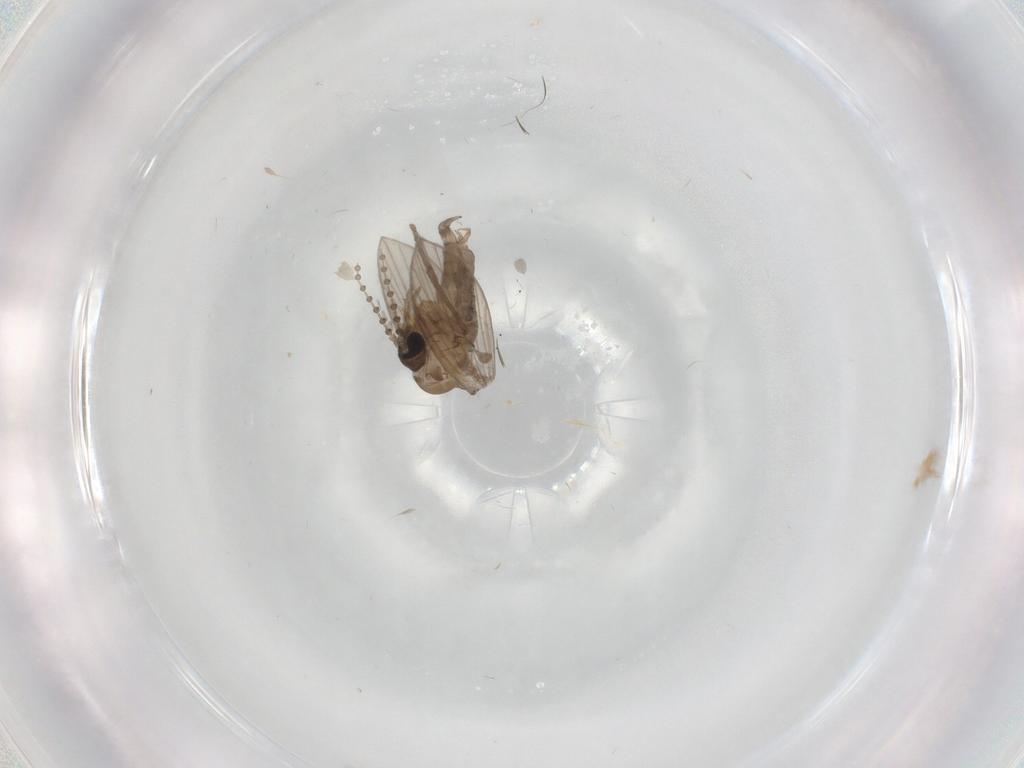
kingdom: Animalia
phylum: Arthropoda
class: Insecta
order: Diptera
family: Psychodidae
